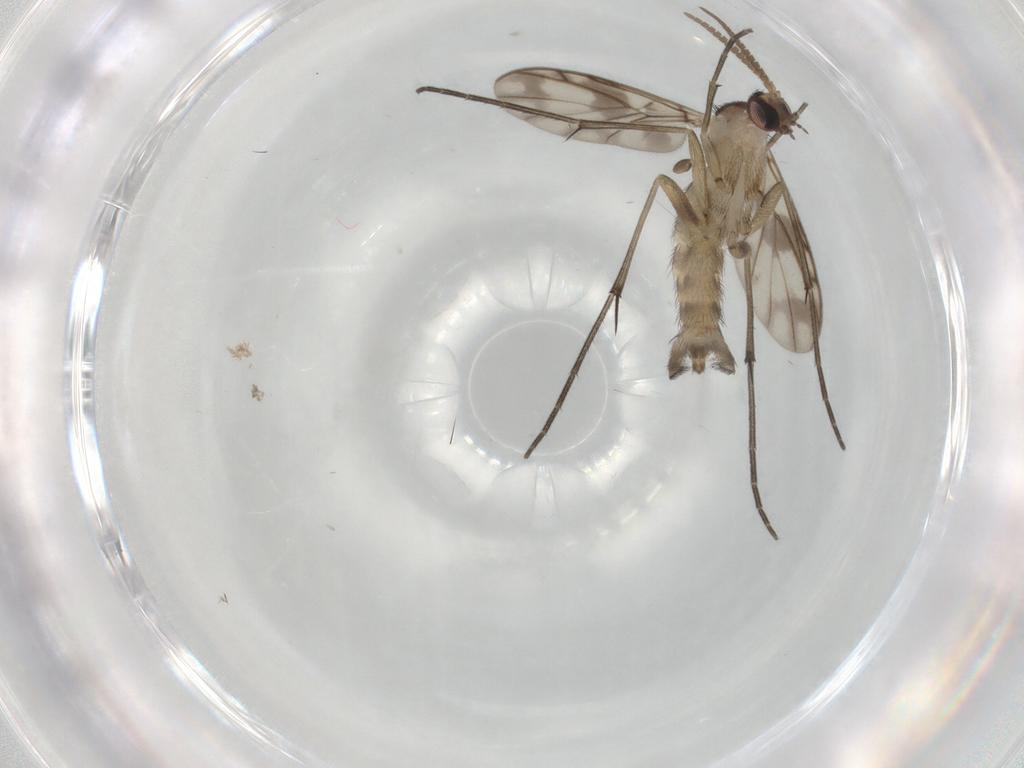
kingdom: Animalia
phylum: Arthropoda
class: Insecta
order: Diptera
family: Keroplatidae
